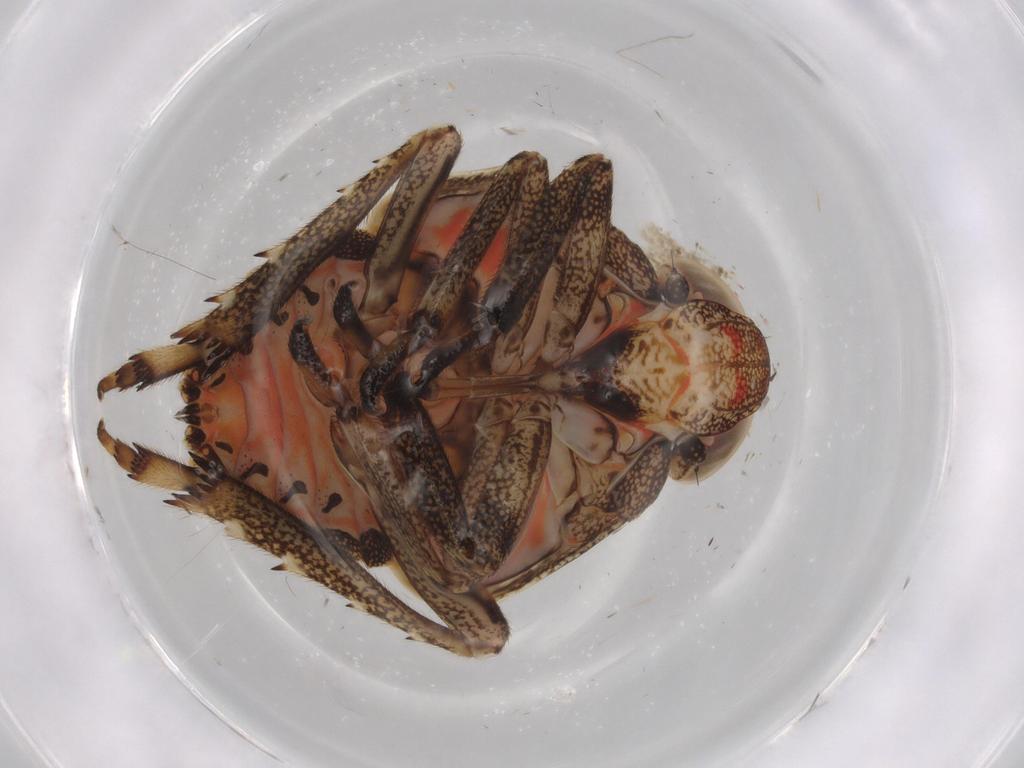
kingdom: Animalia
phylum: Arthropoda
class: Insecta
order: Hemiptera
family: Issidae
